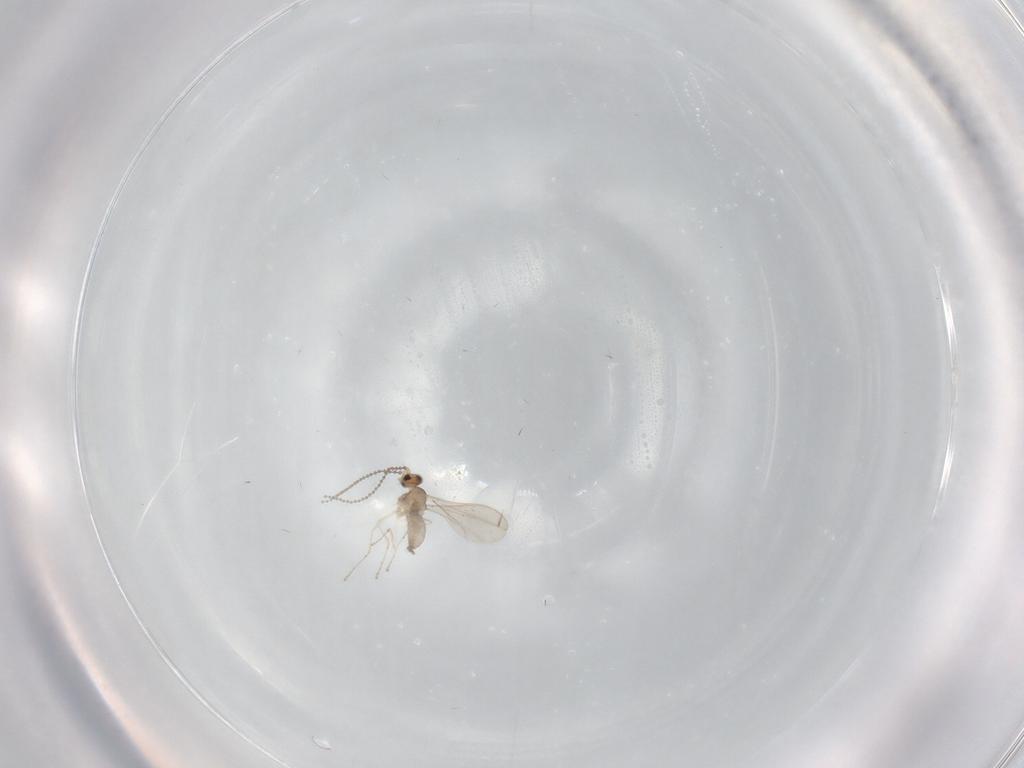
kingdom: Animalia
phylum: Arthropoda
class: Insecta
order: Diptera
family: Cecidomyiidae
